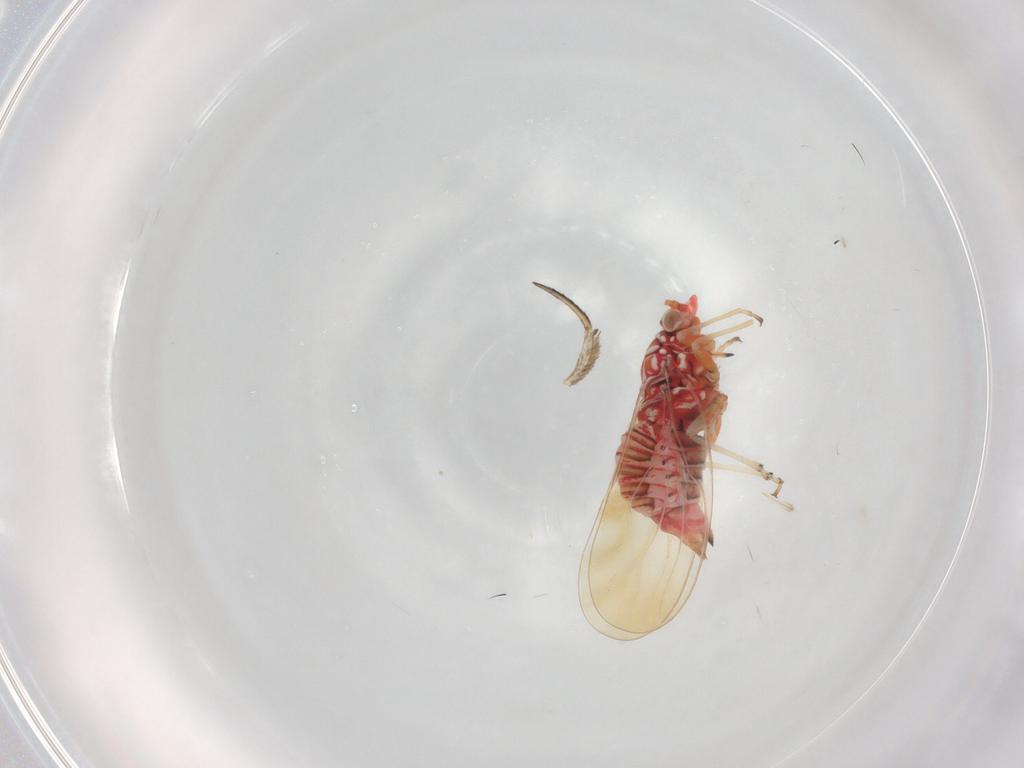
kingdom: Animalia
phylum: Arthropoda
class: Insecta
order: Hemiptera
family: Psyllidae
